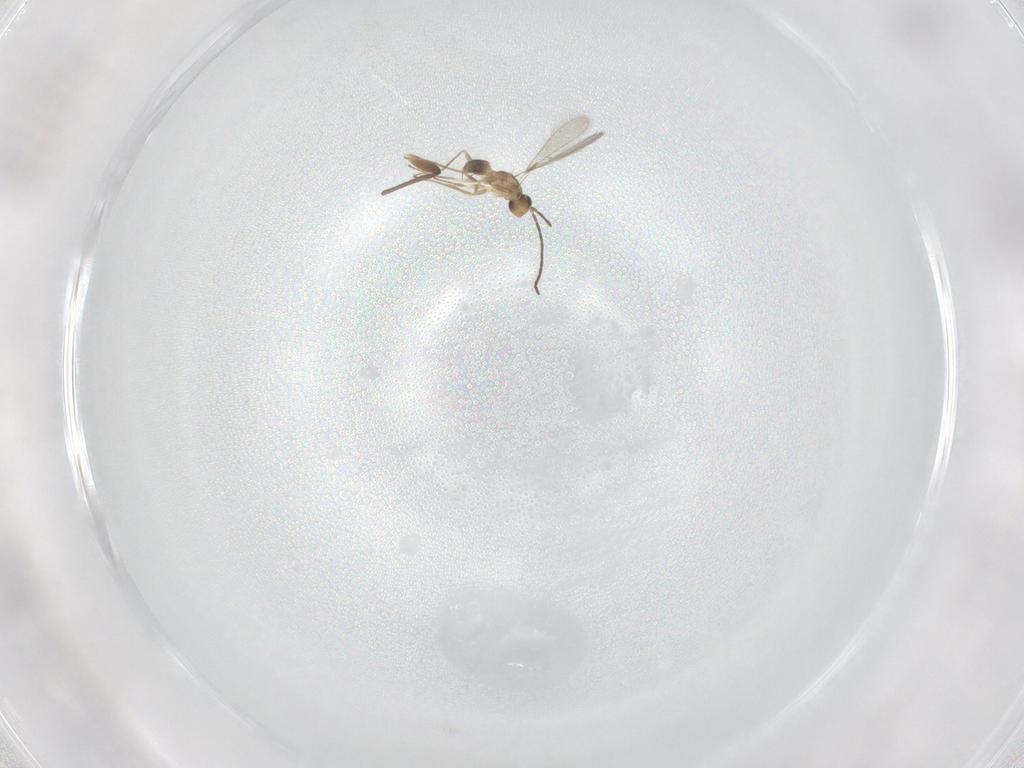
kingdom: Animalia
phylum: Arthropoda
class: Insecta
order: Hymenoptera
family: Mymaridae
